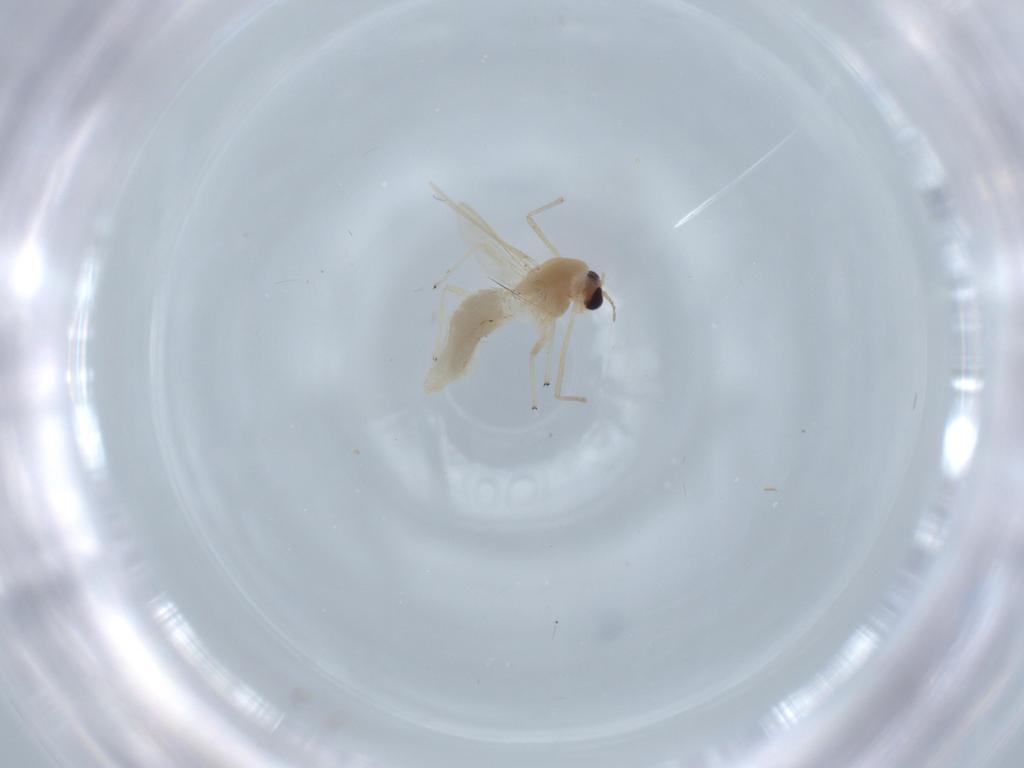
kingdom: Animalia
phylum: Arthropoda
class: Insecta
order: Diptera
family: Chironomidae
